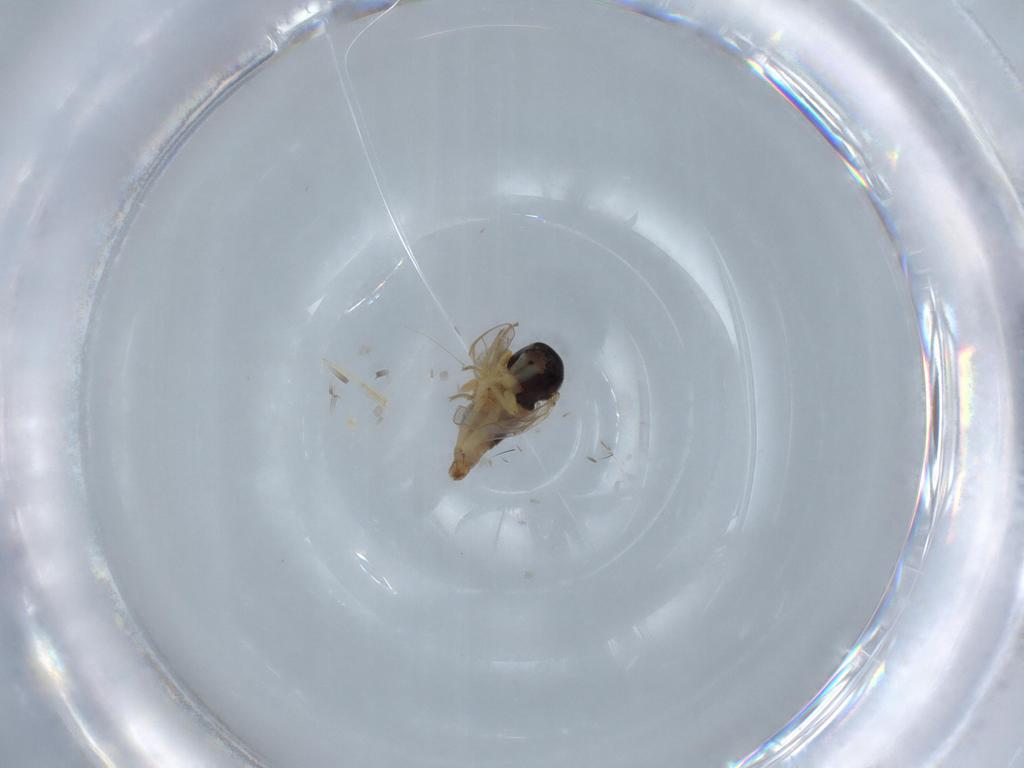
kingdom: Animalia
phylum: Arthropoda
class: Insecta
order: Diptera
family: Hybotidae
